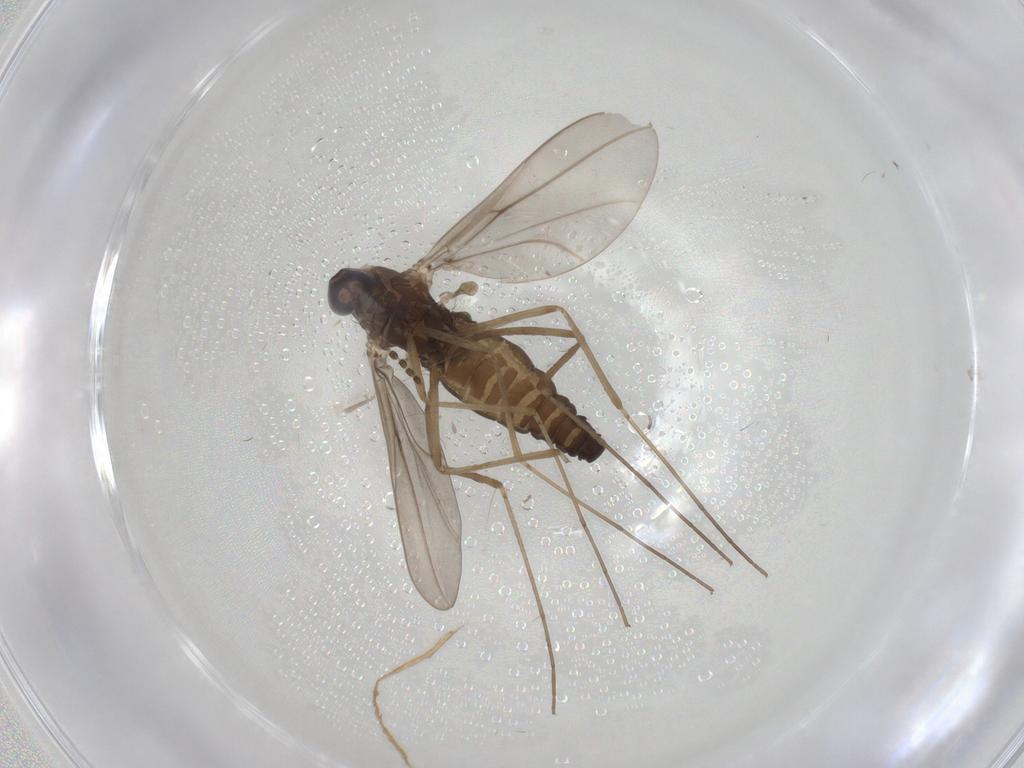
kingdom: Animalia
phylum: Arthropoda
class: Insecta
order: Diptera
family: Cecidomyiidae
